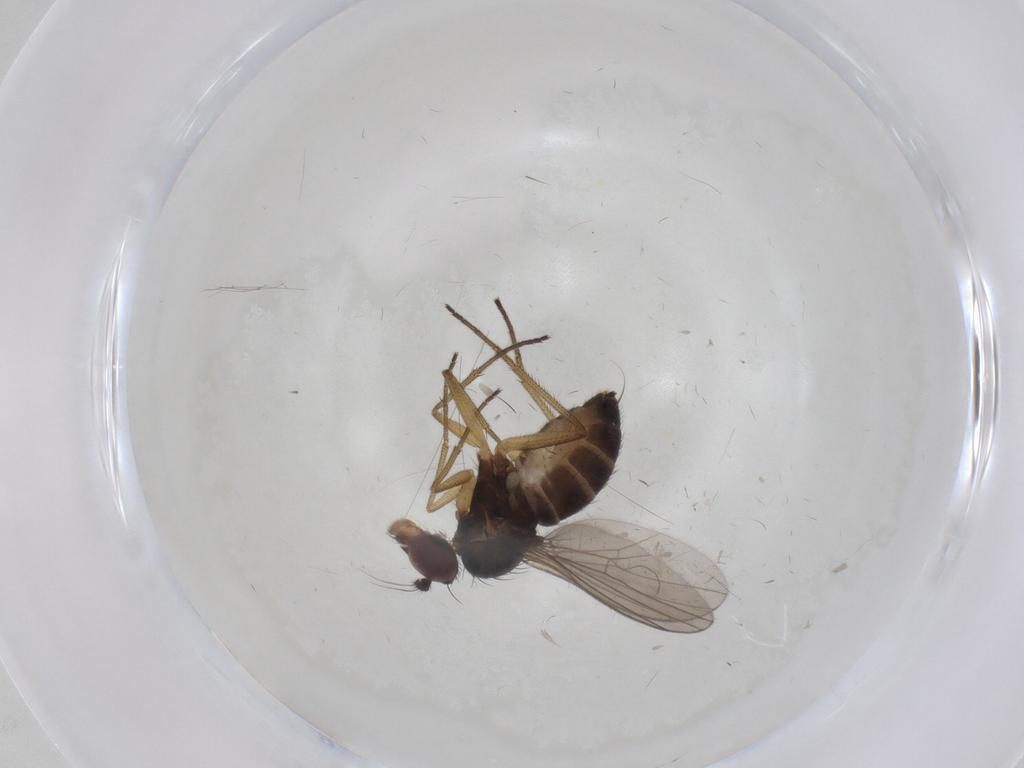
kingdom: Animalia
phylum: Arthropoda
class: Insecta
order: Diptera
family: Dolichopodidae
